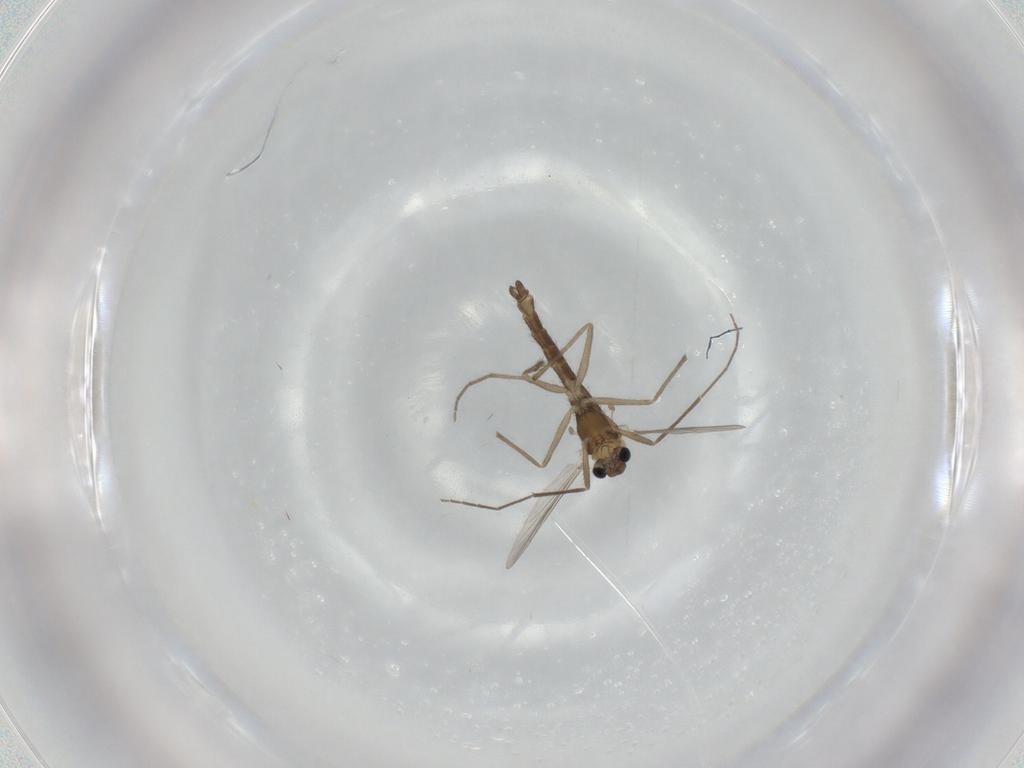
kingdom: Animalia
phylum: Arthropoda
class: Insecta
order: Diptera
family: Chironomidae
